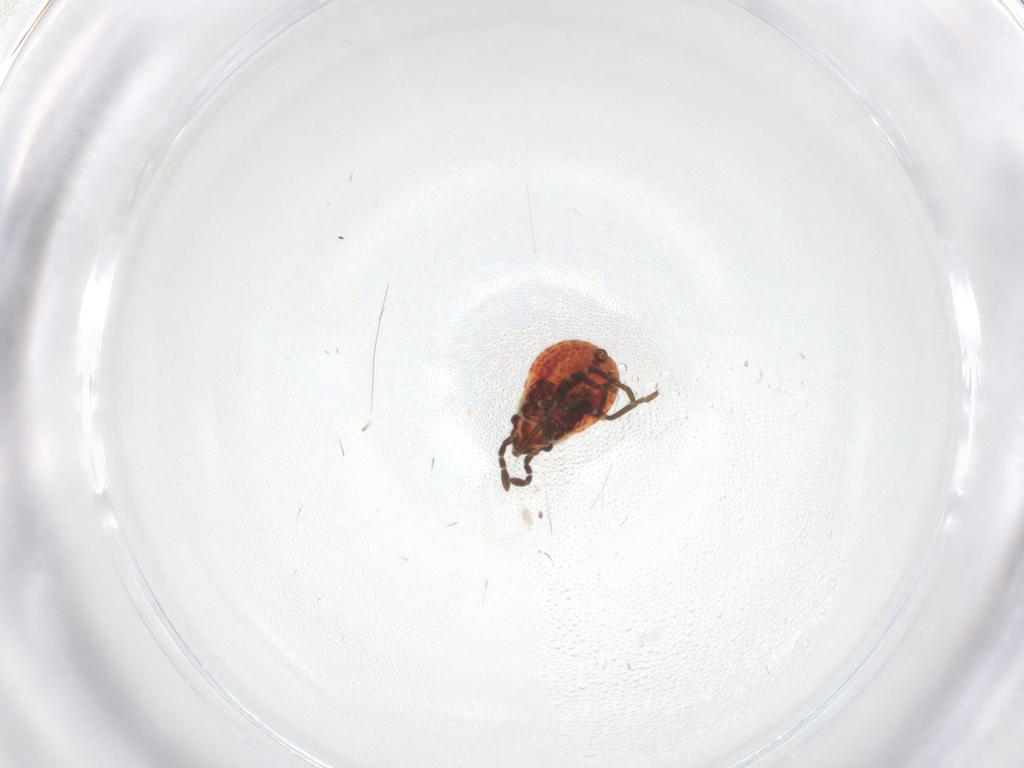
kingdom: Animalia
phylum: Arthropoda
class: Insecta
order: Hemiptera
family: Lygaeidae
